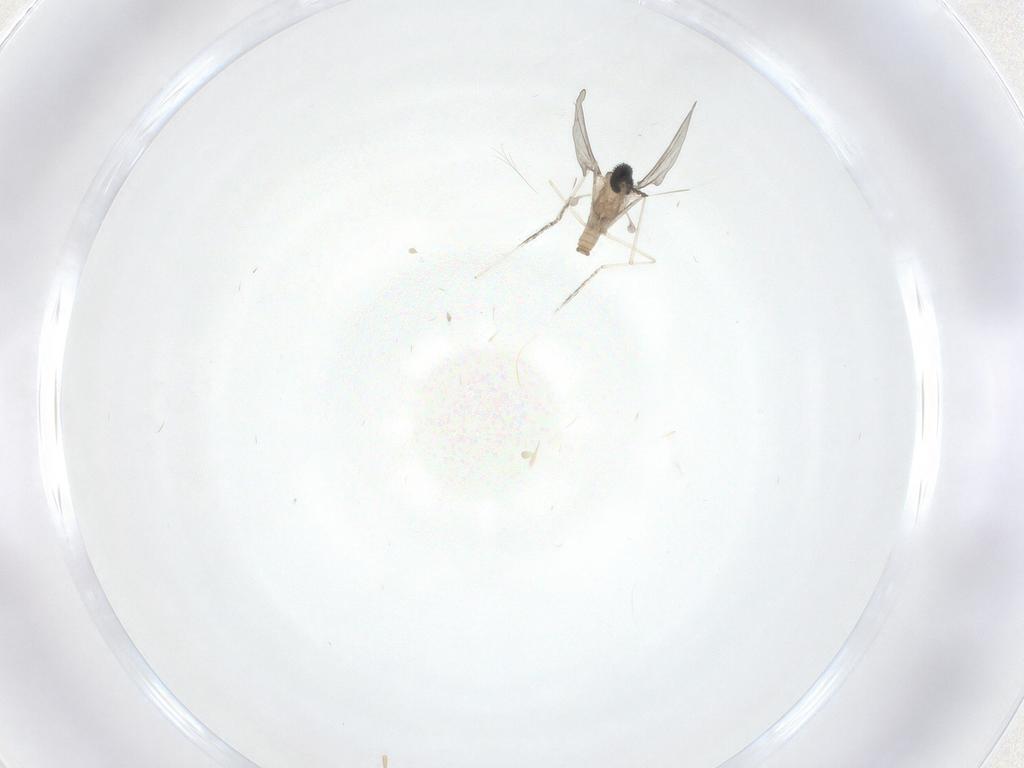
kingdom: Animalia
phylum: Arthropoda
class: Insecta
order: Diptera
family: Cecidomyiidae
